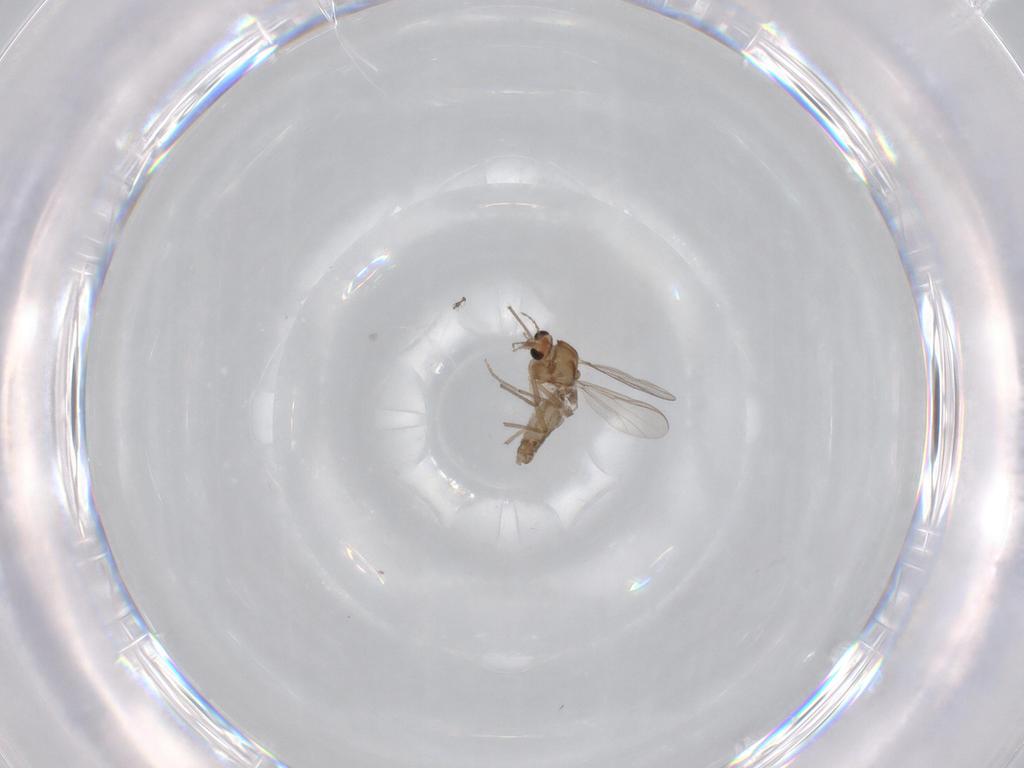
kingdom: Animalia
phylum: Arthropoda
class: Insecta
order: Diptera
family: Chironomidae
